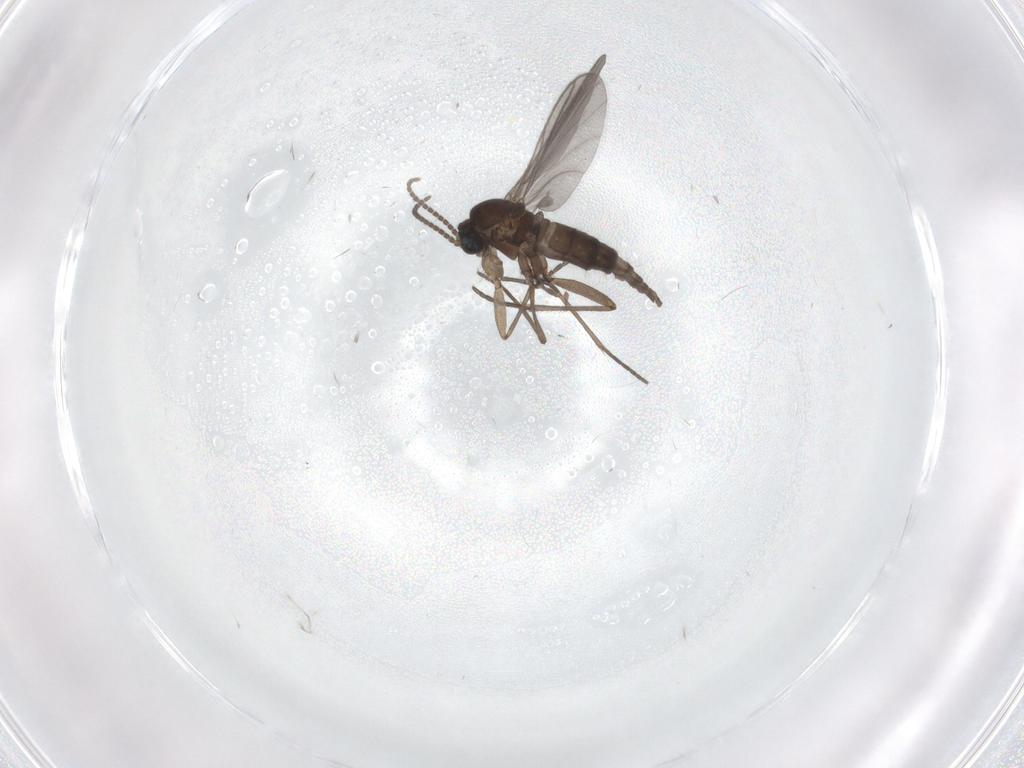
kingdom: Animalia
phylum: Arthropoda
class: Insecta
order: Diptera
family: Sciaridae
